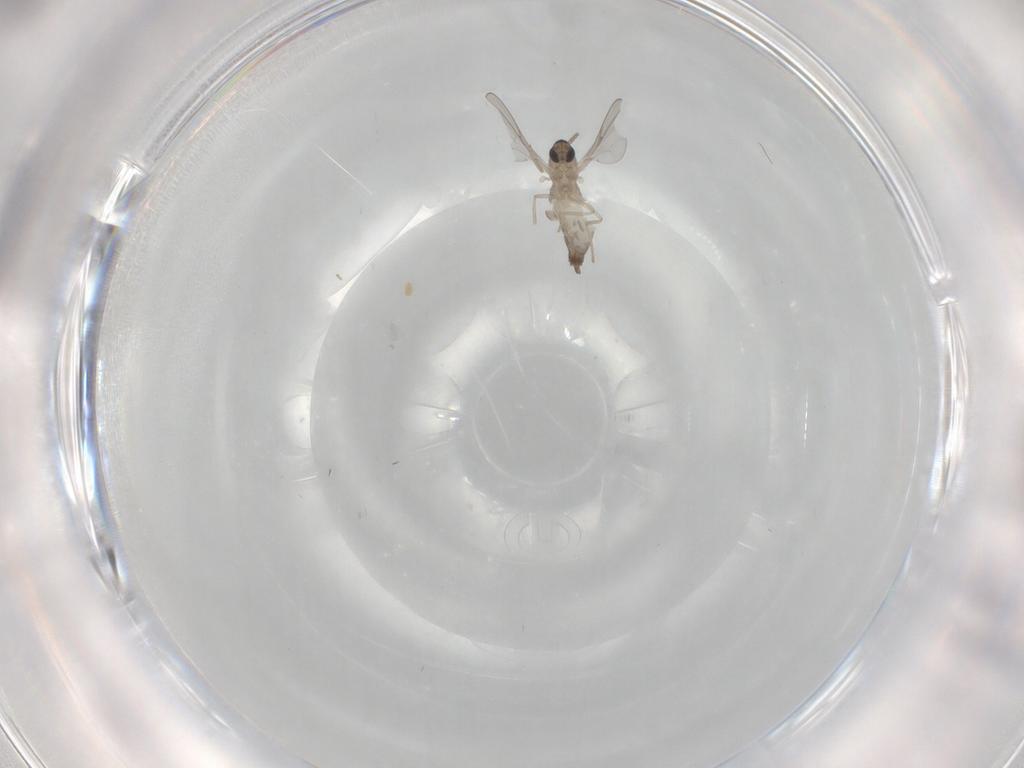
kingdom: Animalia
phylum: Arthropoda
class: Insecta
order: Diptera
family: Cecidomyiidae
